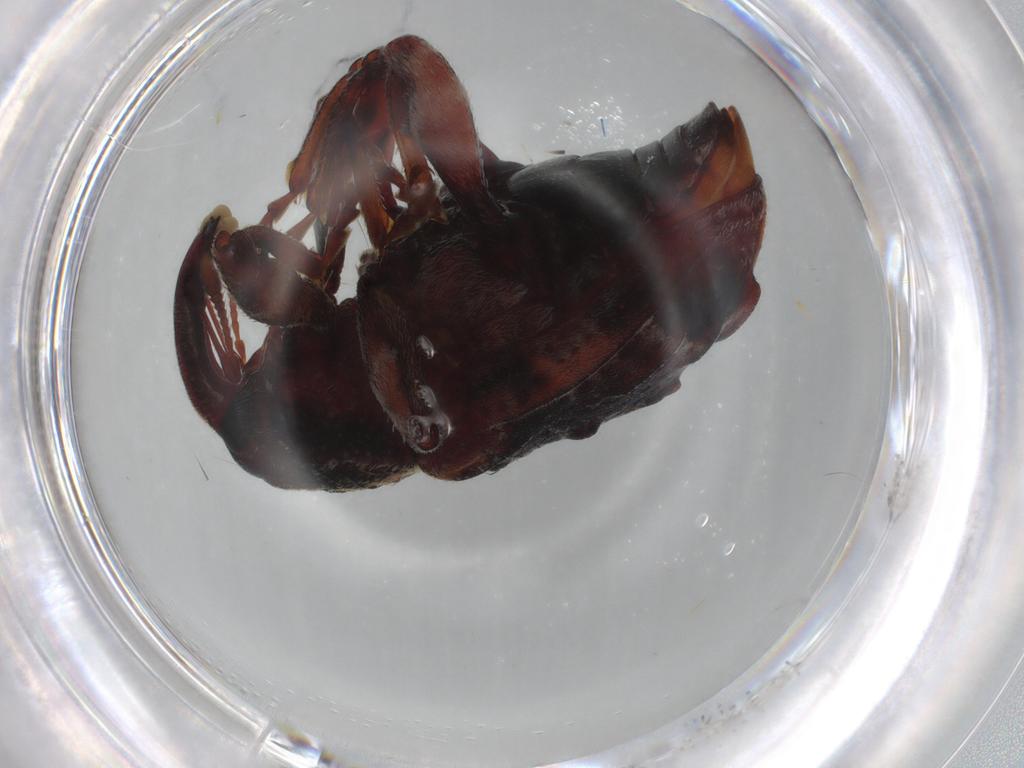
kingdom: Animalia
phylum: Arthropoda
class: Insecta
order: Coleoptera
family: Curculionidae
